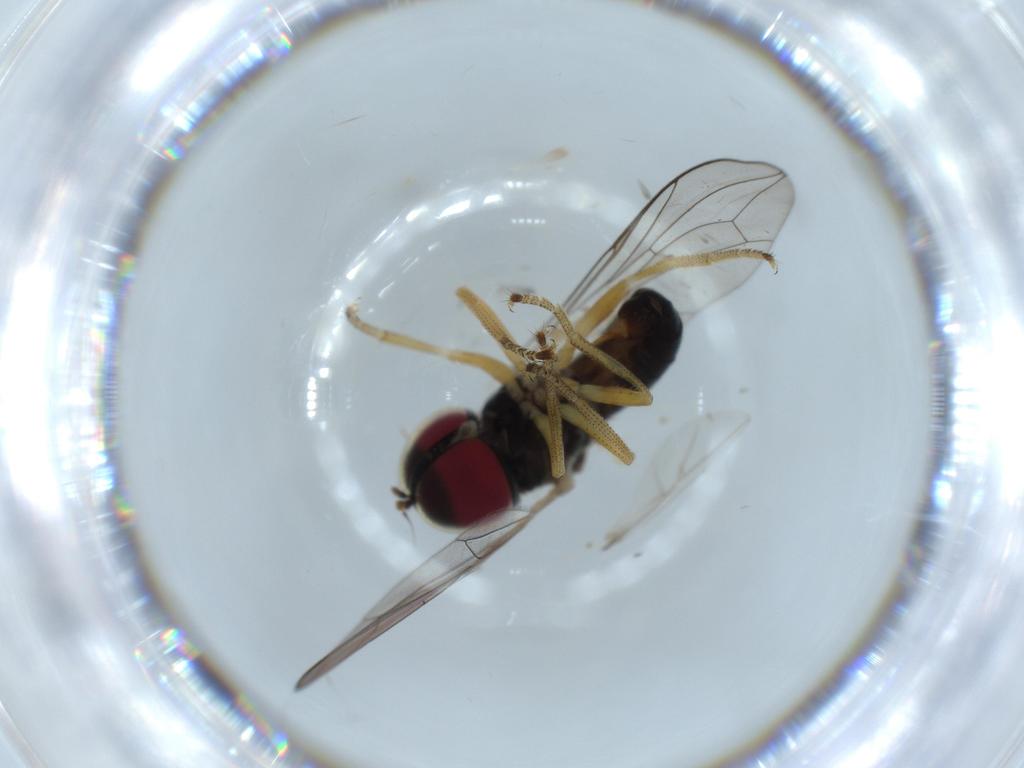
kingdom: Animalia
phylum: Arthropoda
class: Insecta
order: Diptera
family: Pipunculidae
